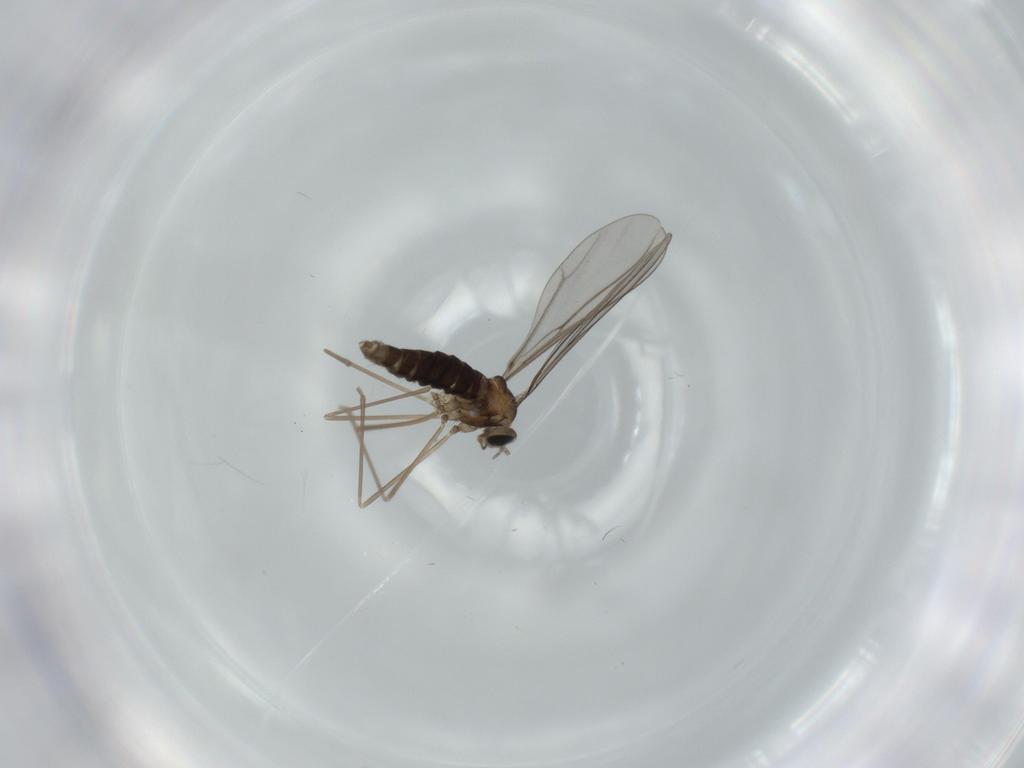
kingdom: Animalia
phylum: Arthropoda
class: Insecta
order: Diptera
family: Cecidomyiidae
